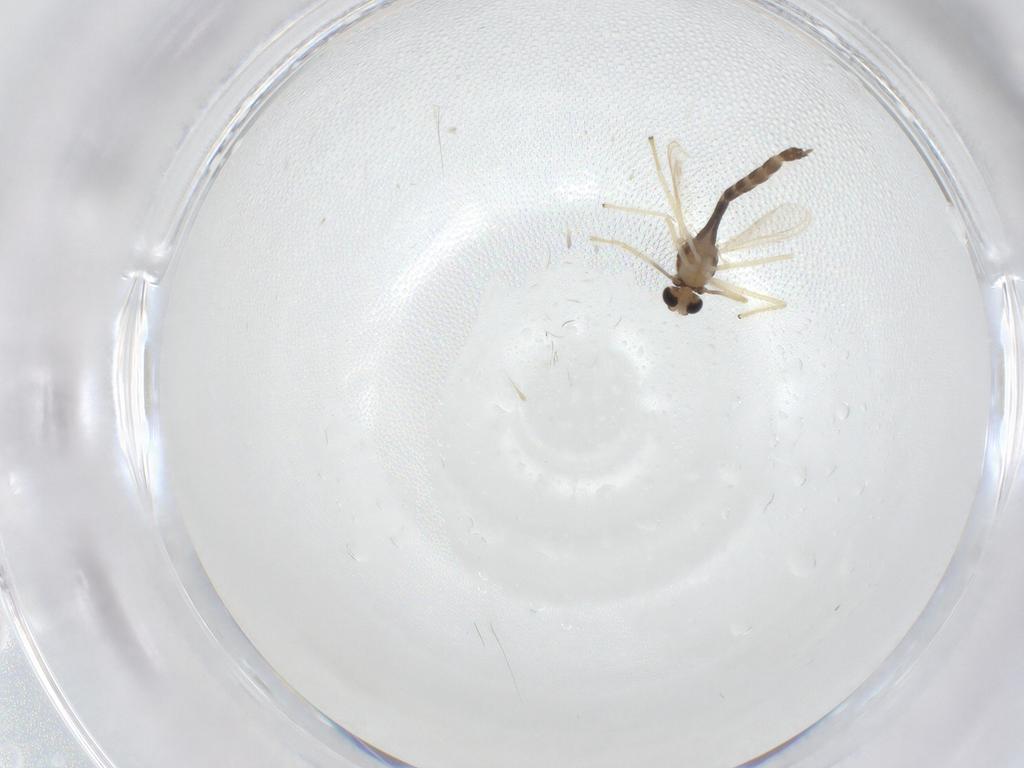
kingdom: Animalia
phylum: Arthropoda
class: Insecta
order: Diptera
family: Chironomidae
